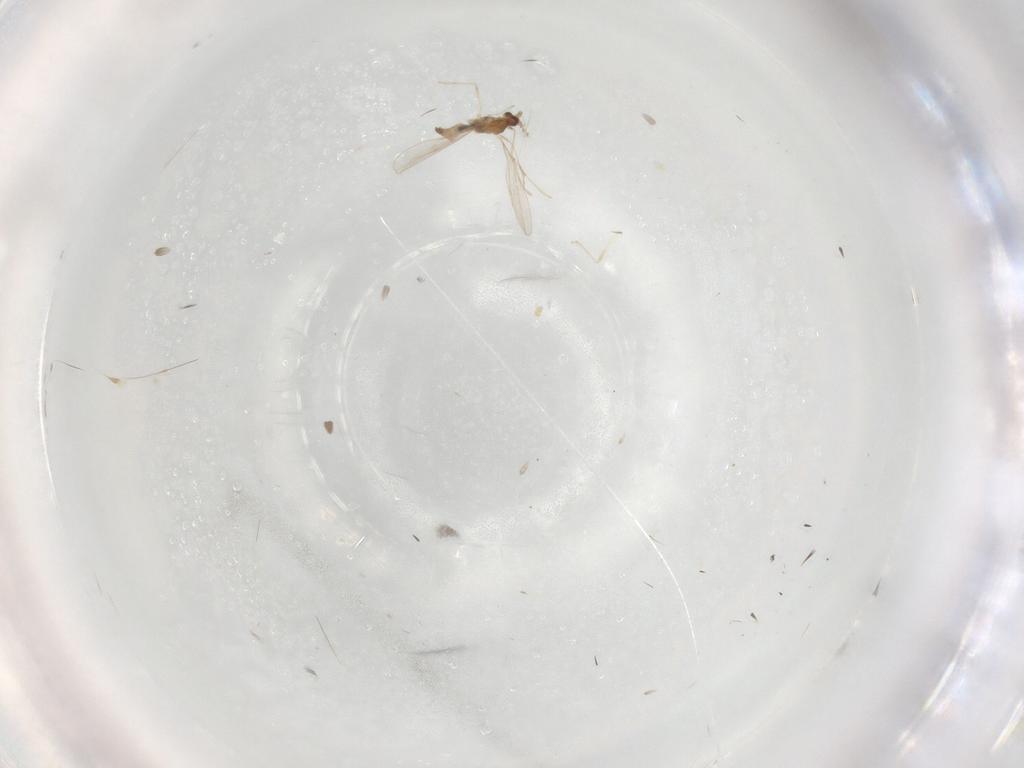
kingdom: Animalia
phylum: Arthropoda
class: Insecta
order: Diptera
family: Cecidomyiidae
